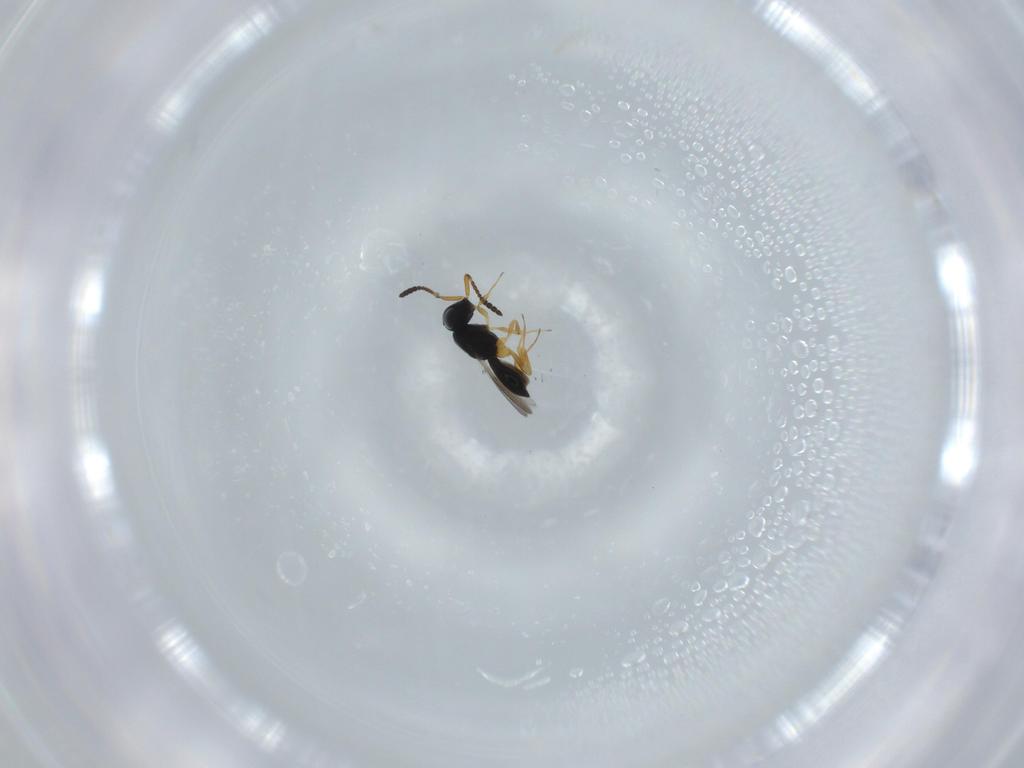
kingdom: Animalia
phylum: Arthropoda
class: Insecta
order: Hymenoptera
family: Scelionidae
